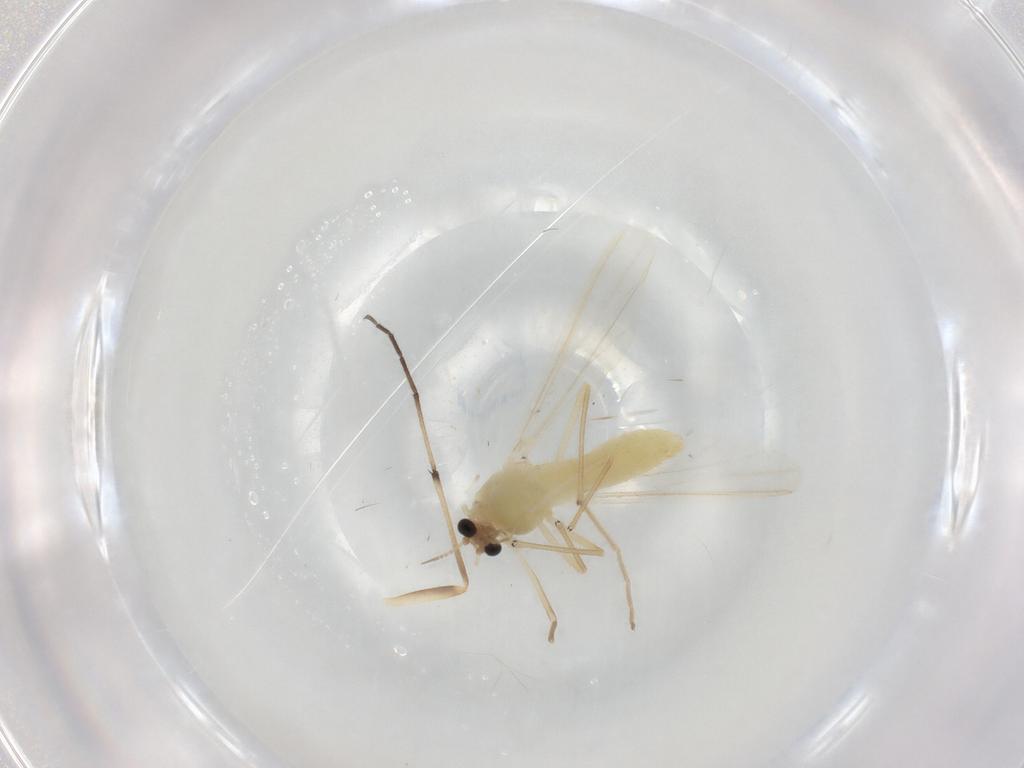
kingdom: Animalia
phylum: Arthropoda
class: Insecta
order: Diptera
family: Chironomidae
